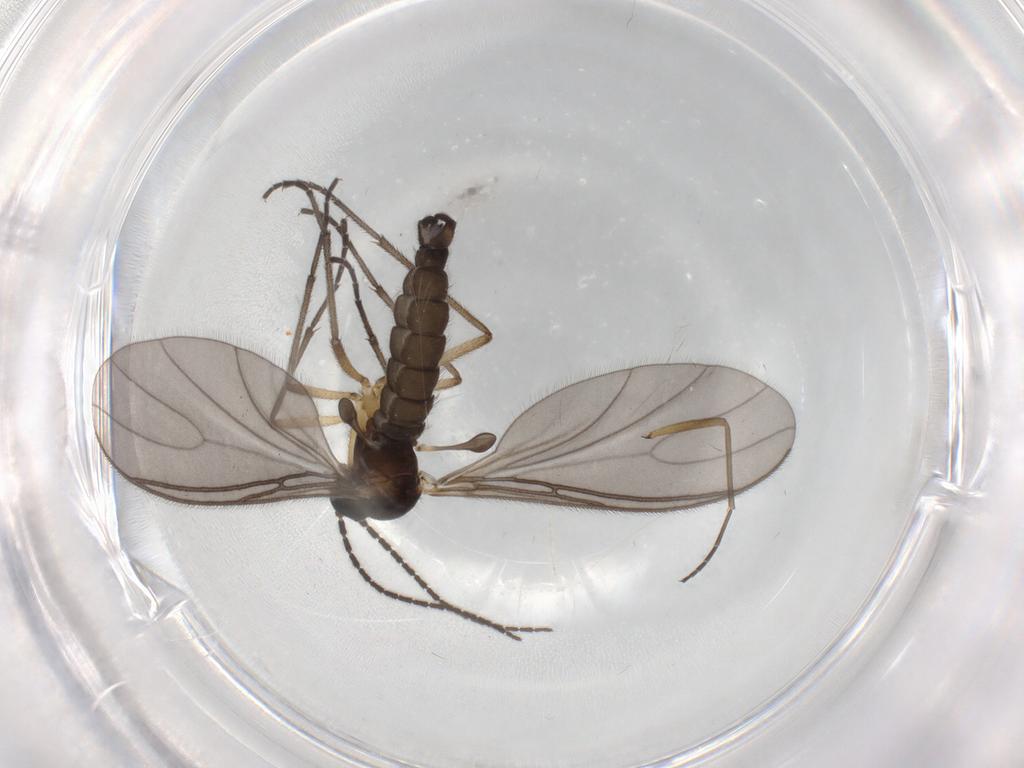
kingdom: Animalia
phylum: Arthropoda
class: Insecta
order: Diptera
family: Sciaridae
